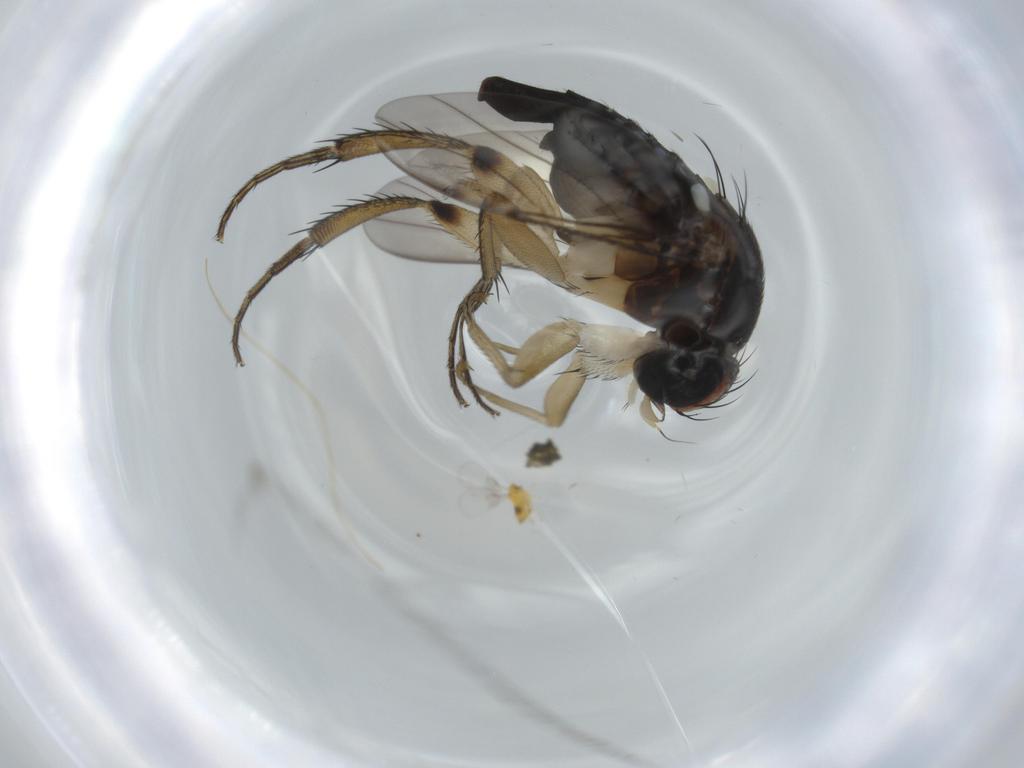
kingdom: Animalia
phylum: Arthropoda
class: Insecta
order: Diptera
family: Phoridae
